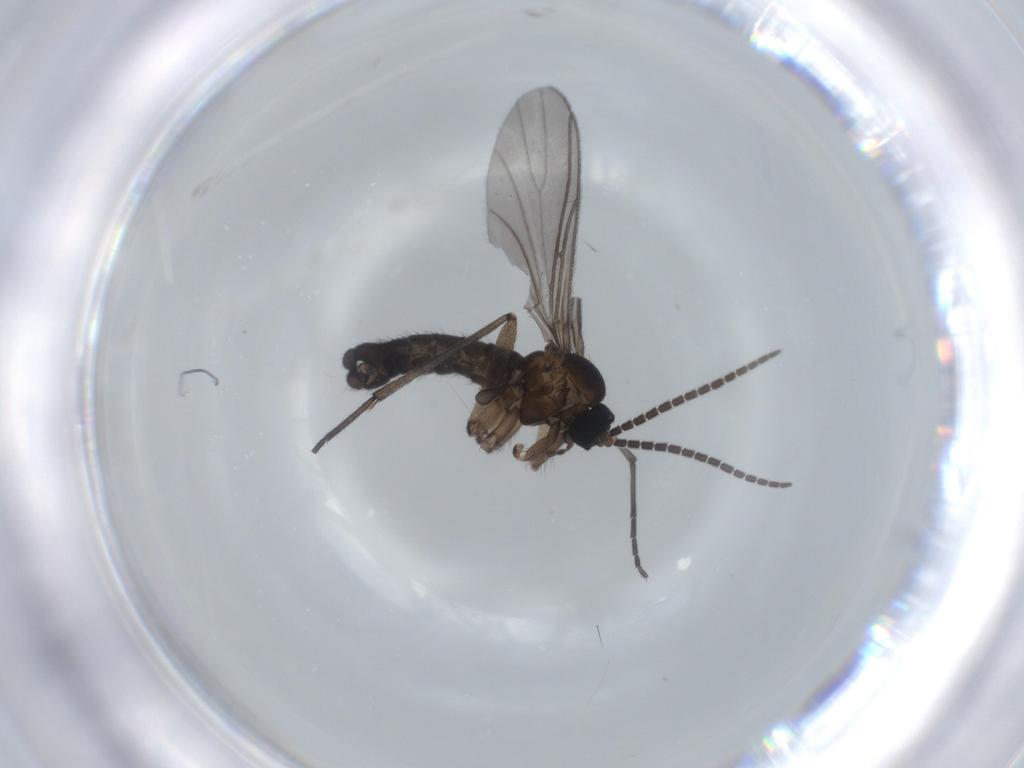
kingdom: Animalia
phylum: Arthropoda
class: Insecta
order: Diptera
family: Sciaridae
